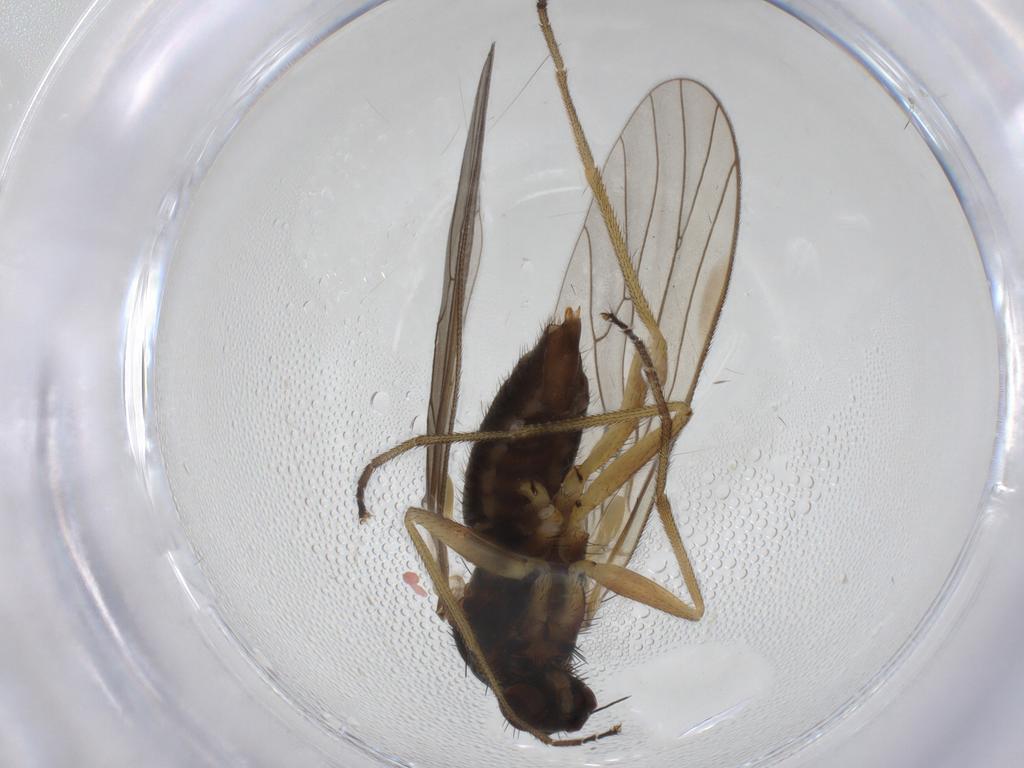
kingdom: Animalia
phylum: Arthropoda
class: Insecta
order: Diptera
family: Brachystomatidae
